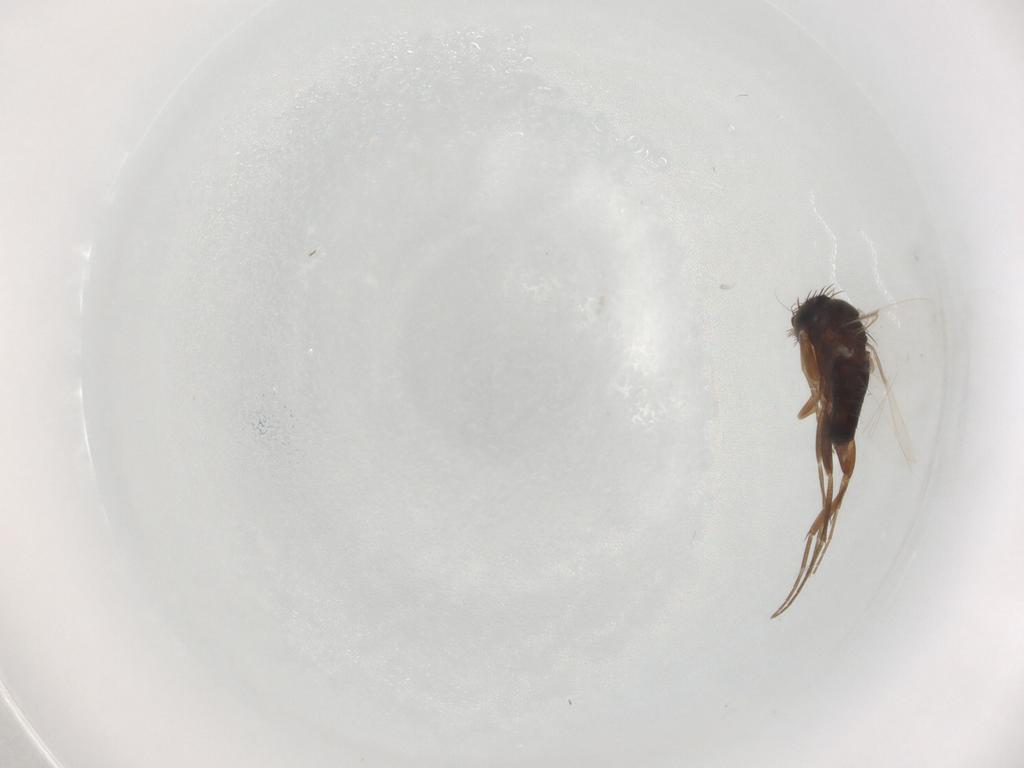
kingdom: Animalia
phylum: Arthropoda
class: Insecta
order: Diptera
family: Phoridae
